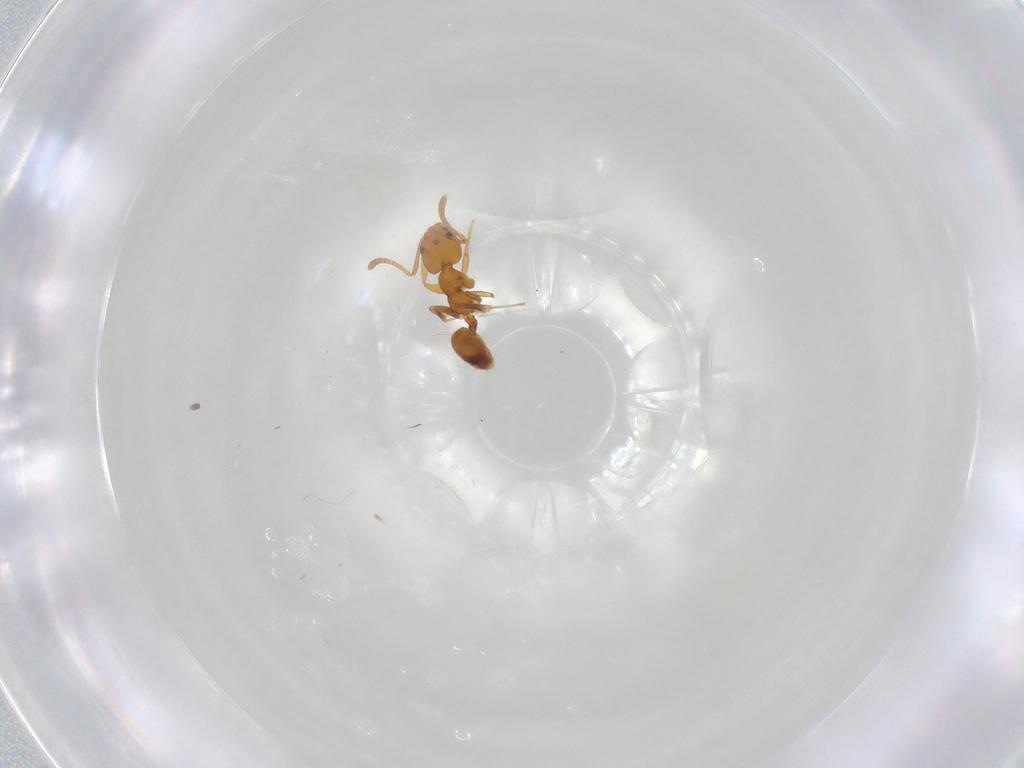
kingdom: Animalia
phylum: Arthropoda
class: Insecta
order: Hymenoptera
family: Formicidae
